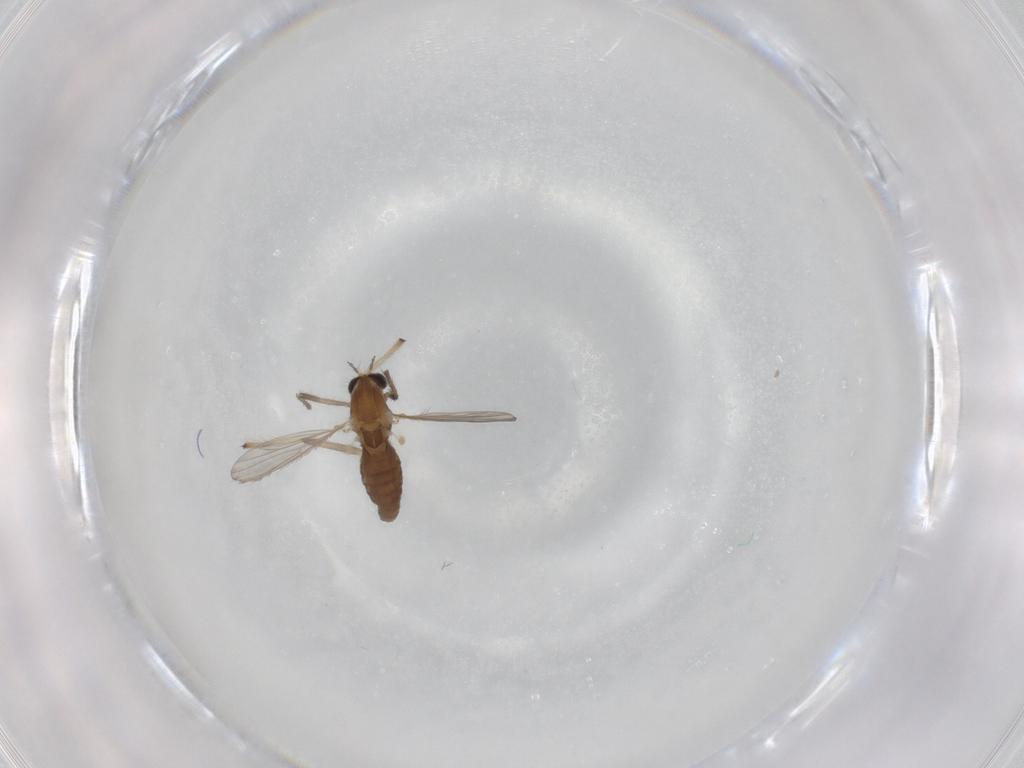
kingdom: Animalia
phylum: Arthropoda
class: Insecta
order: Diptera
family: Chironomidae
